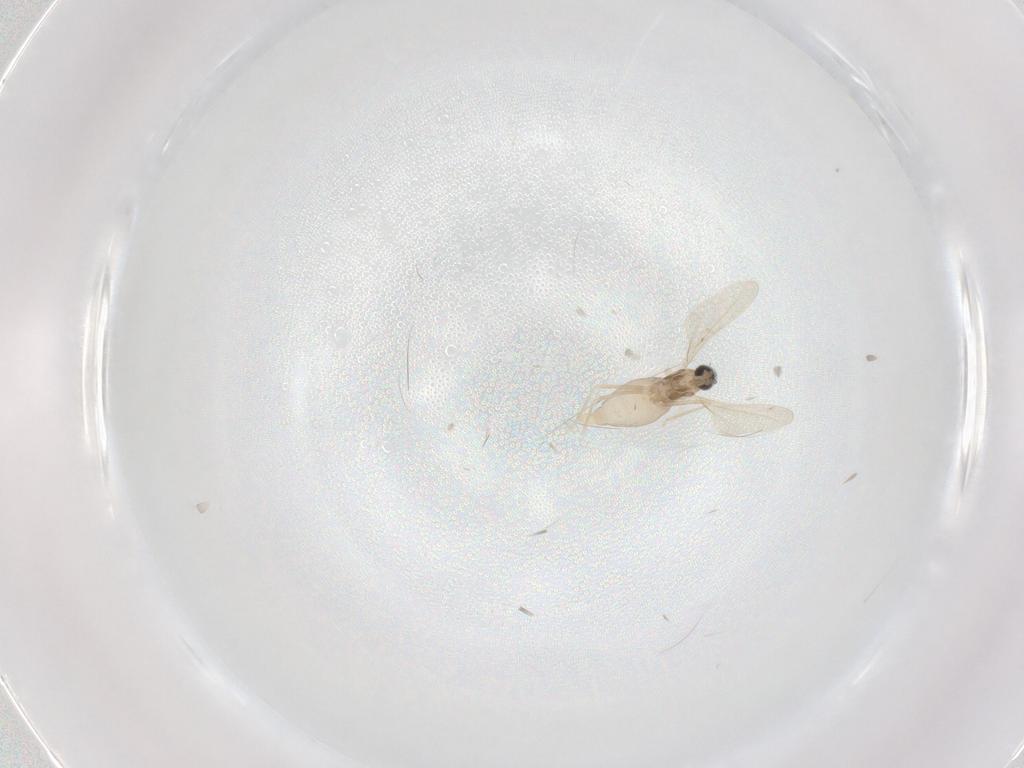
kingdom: Animalia
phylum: Arthropoda
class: Insecta
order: Diptera
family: Cecidomyiidae
